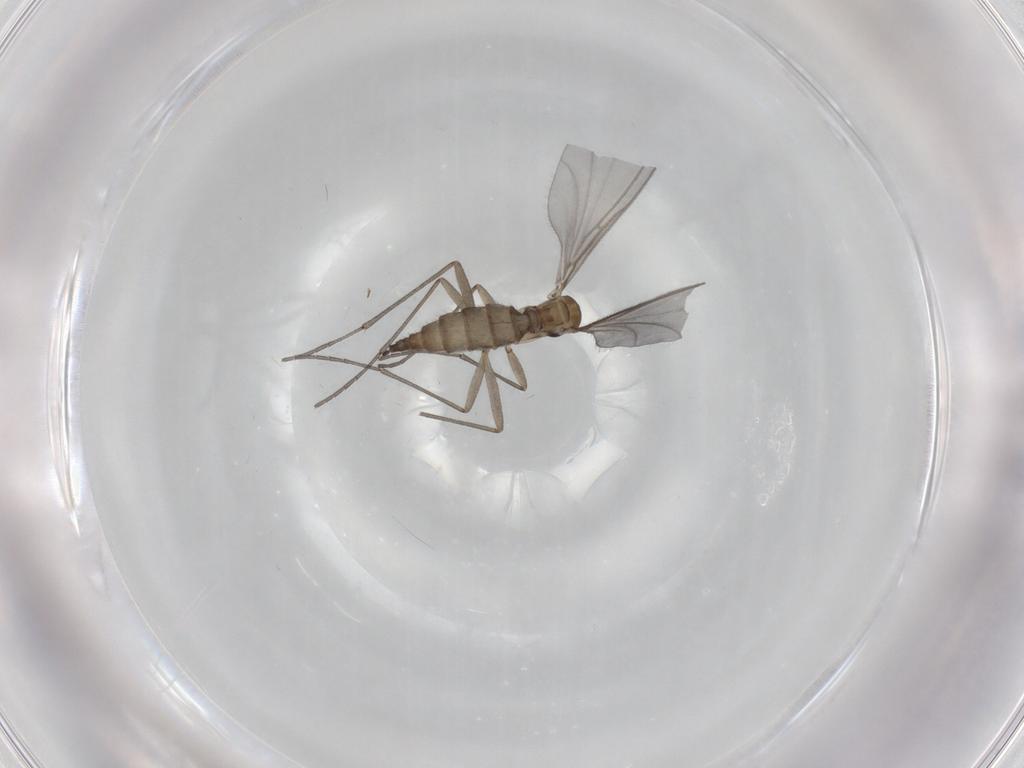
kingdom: Animalia
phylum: Arthropoda
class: Insecta
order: Diptera
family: Sciaridae
